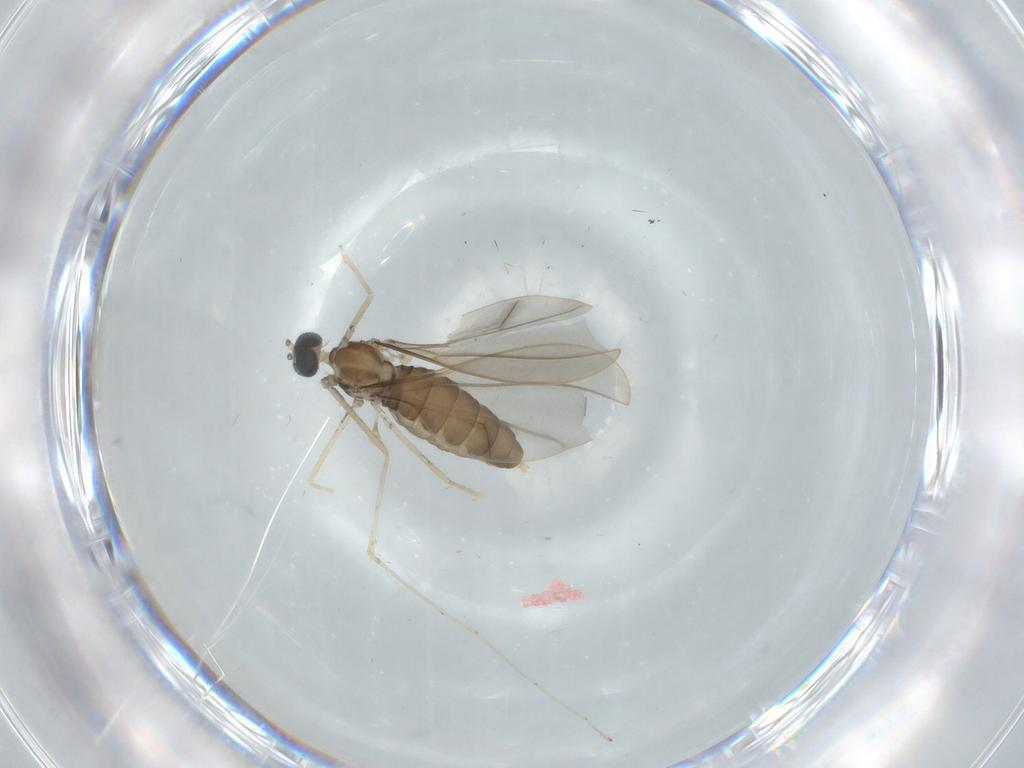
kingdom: Animalia
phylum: Arthropoda
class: Insecta
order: Diptera
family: Cecidomyiidae
